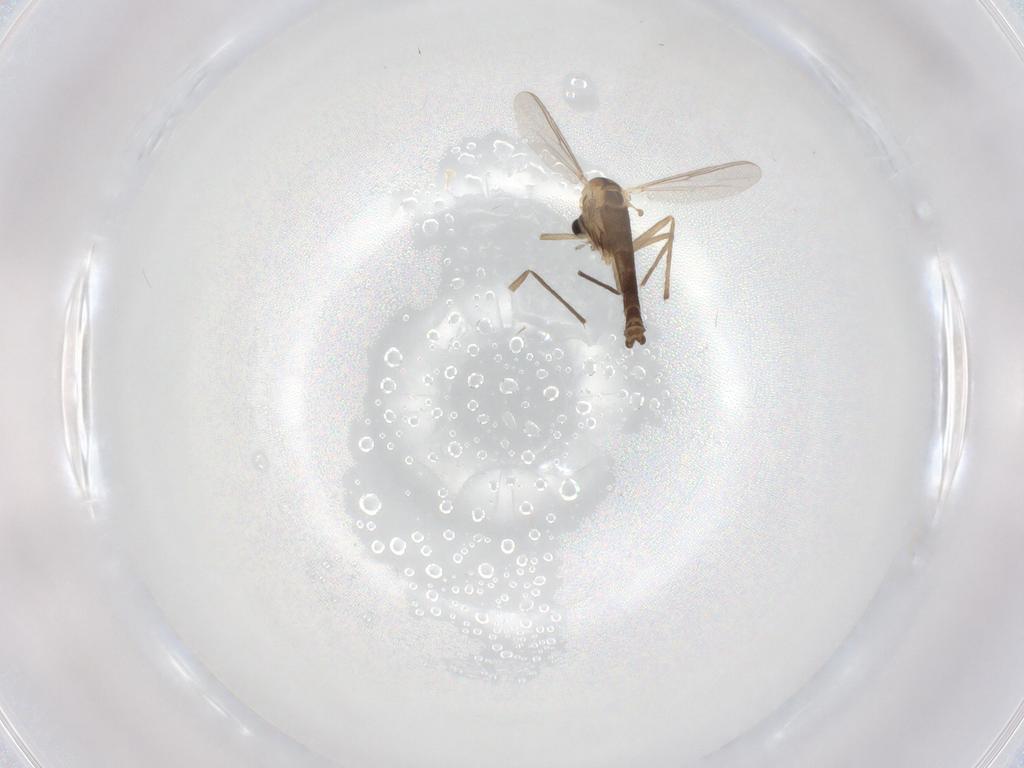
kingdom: Animalia
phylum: Arthropoda
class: Insecta
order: Diptera
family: Chironomidae
